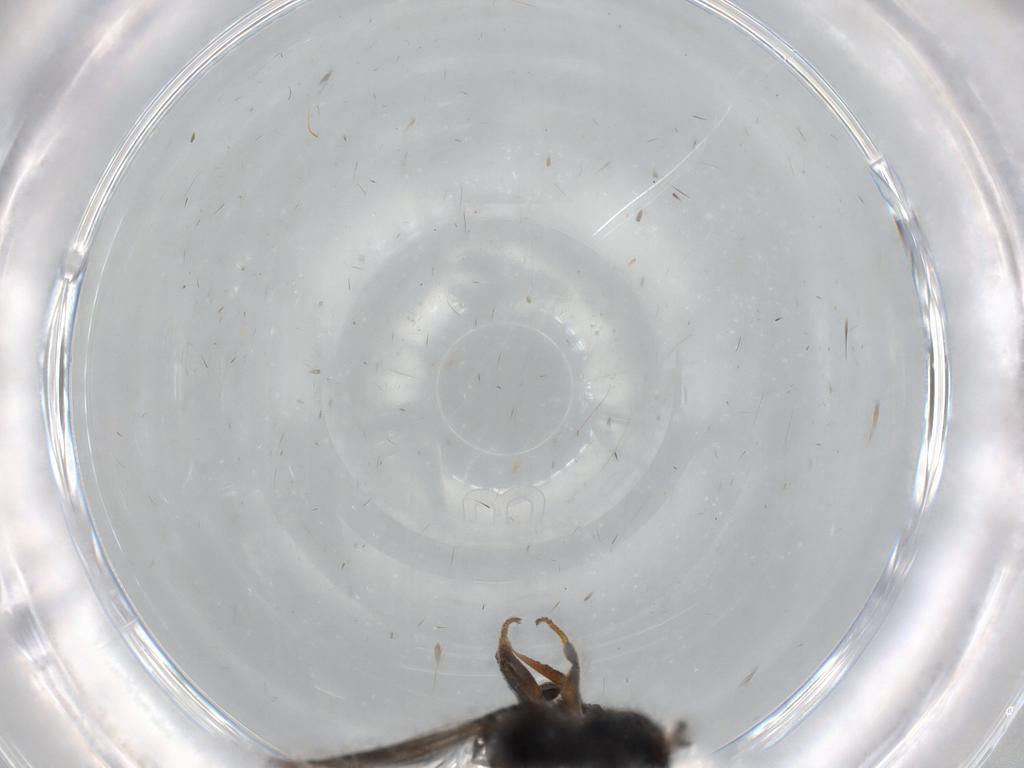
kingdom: Animalia
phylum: Arthropoda
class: Insecta
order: Hymenoptera
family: Bethylidae
